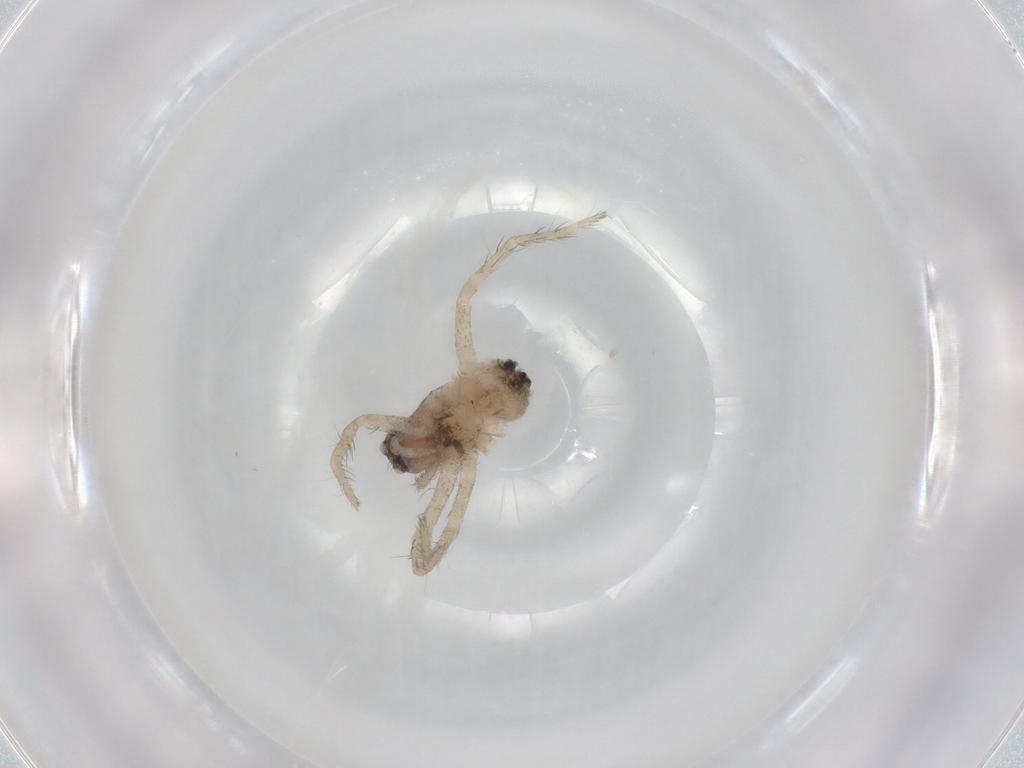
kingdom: Animalia
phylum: Arthropoda
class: Arachnida
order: Araneae
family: Lycosidae
